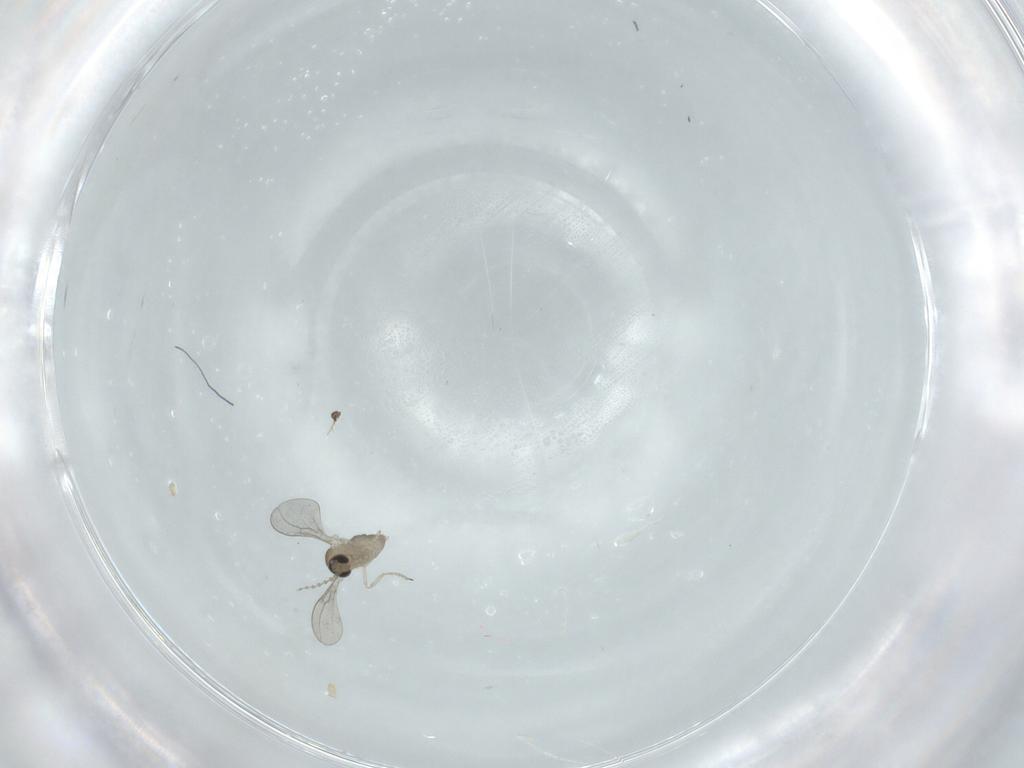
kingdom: Animalia
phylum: Arthropoda
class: Insecta
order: Diptera
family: Cecidomyiidae
